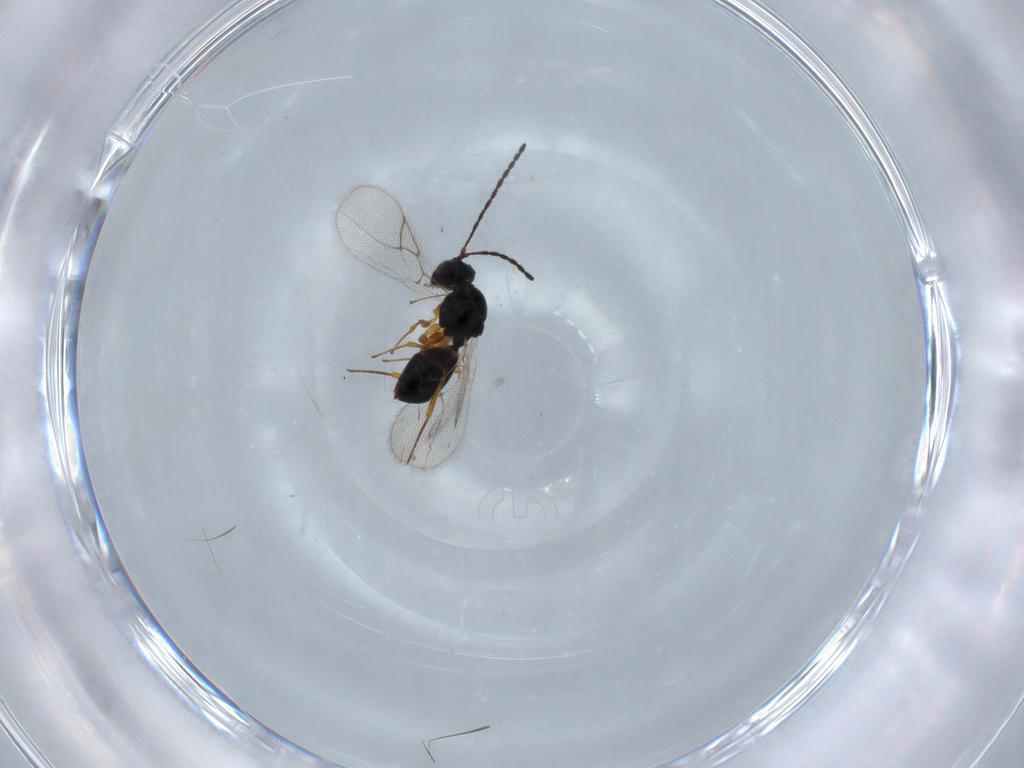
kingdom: Animalia
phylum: Arthropoda
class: Insecta
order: Hymenoptera
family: Figitidae
